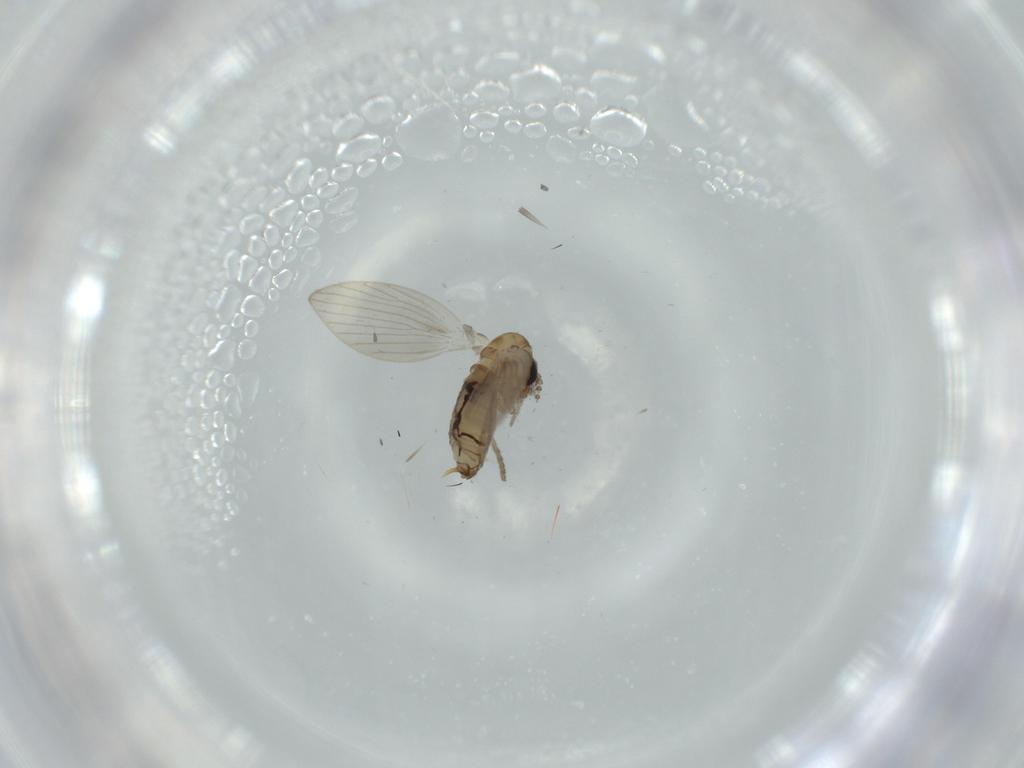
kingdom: Animalia
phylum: Arthropoda
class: Insecta
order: Diptera
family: Psychodidae
